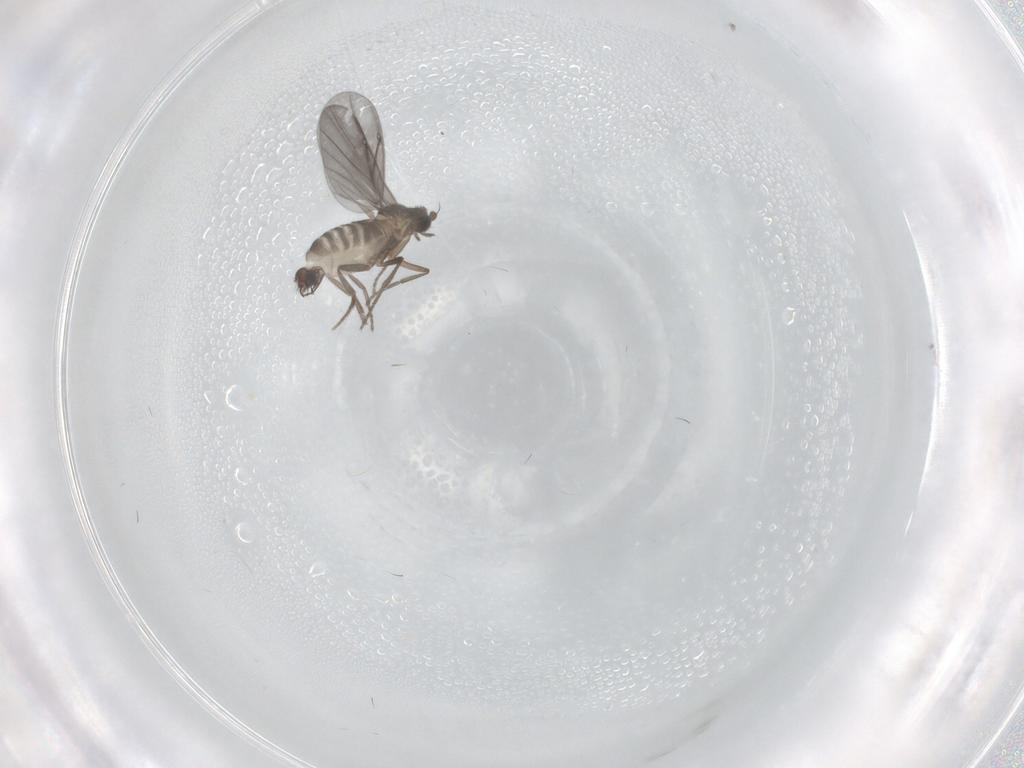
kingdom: Animalia
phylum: Arthropoda
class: Insecta
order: Diptera
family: Phoridae
